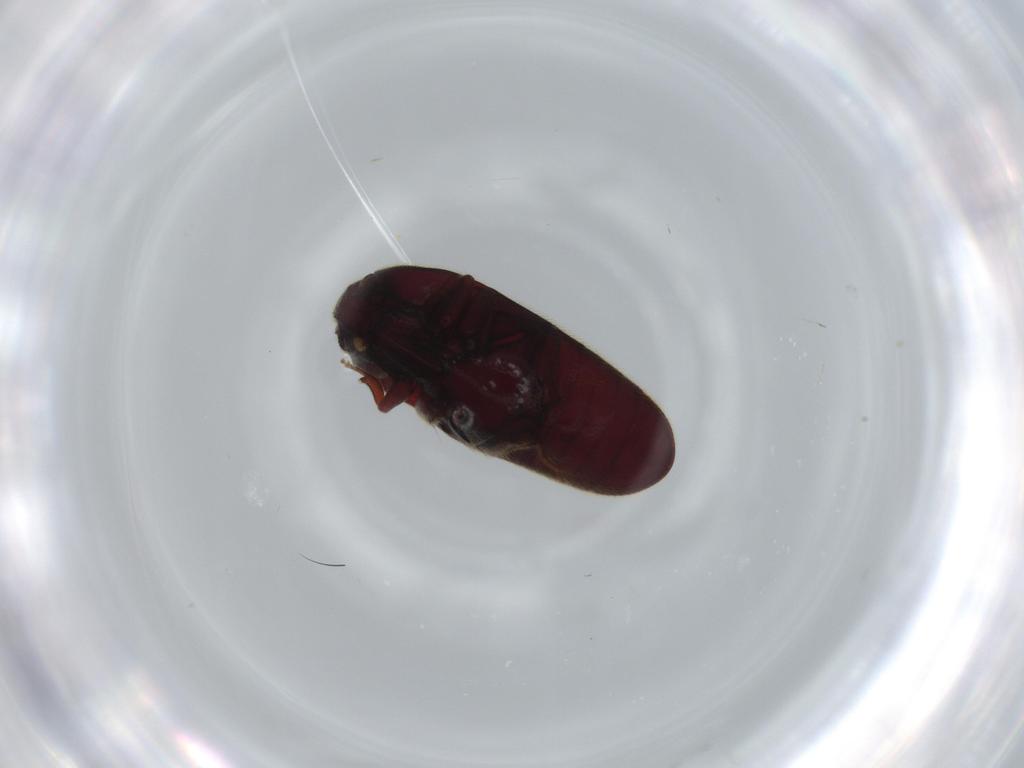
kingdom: Animalia
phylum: Arthropoda
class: Insecta
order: Coleoptera
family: Throscidae
